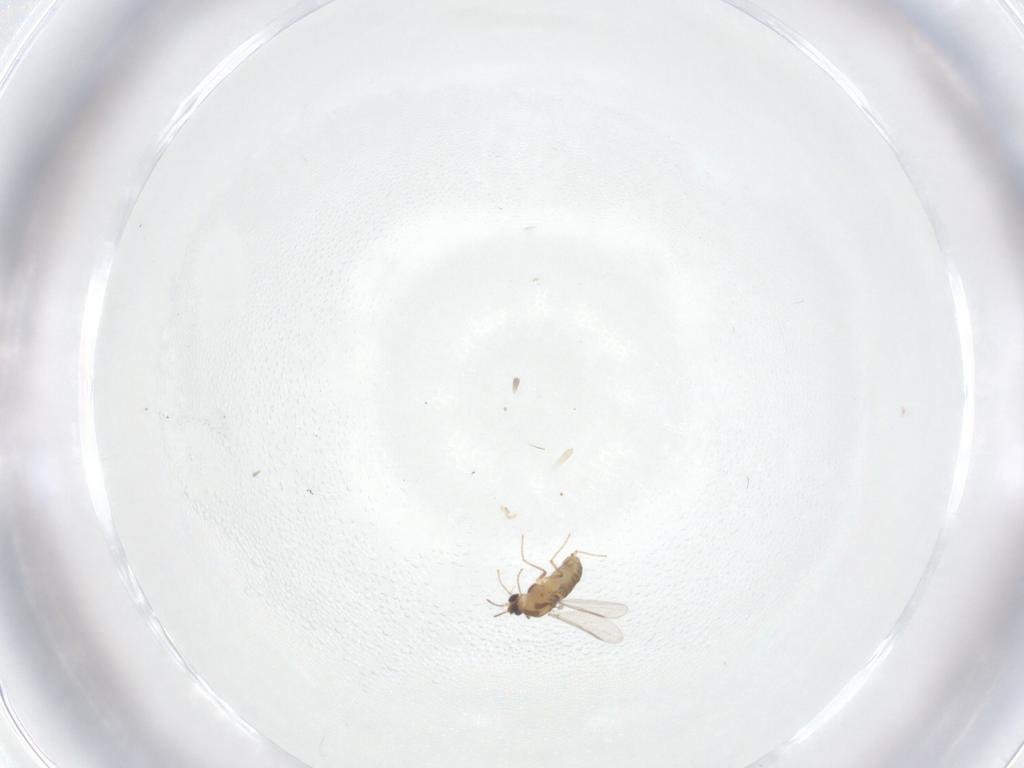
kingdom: Animalia
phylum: Arthropoda
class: Insecta
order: Diptera
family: Chironomidae
